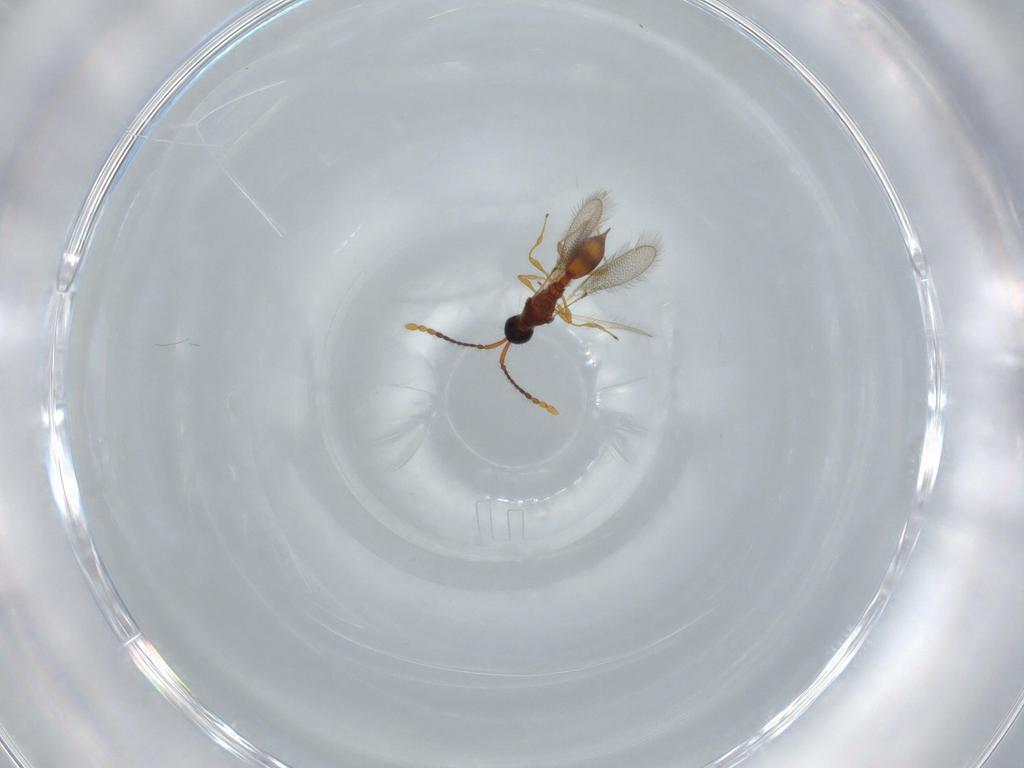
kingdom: Animalia
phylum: Arthropoda
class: Insecta
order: Hymenoptera
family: Diapriidae
